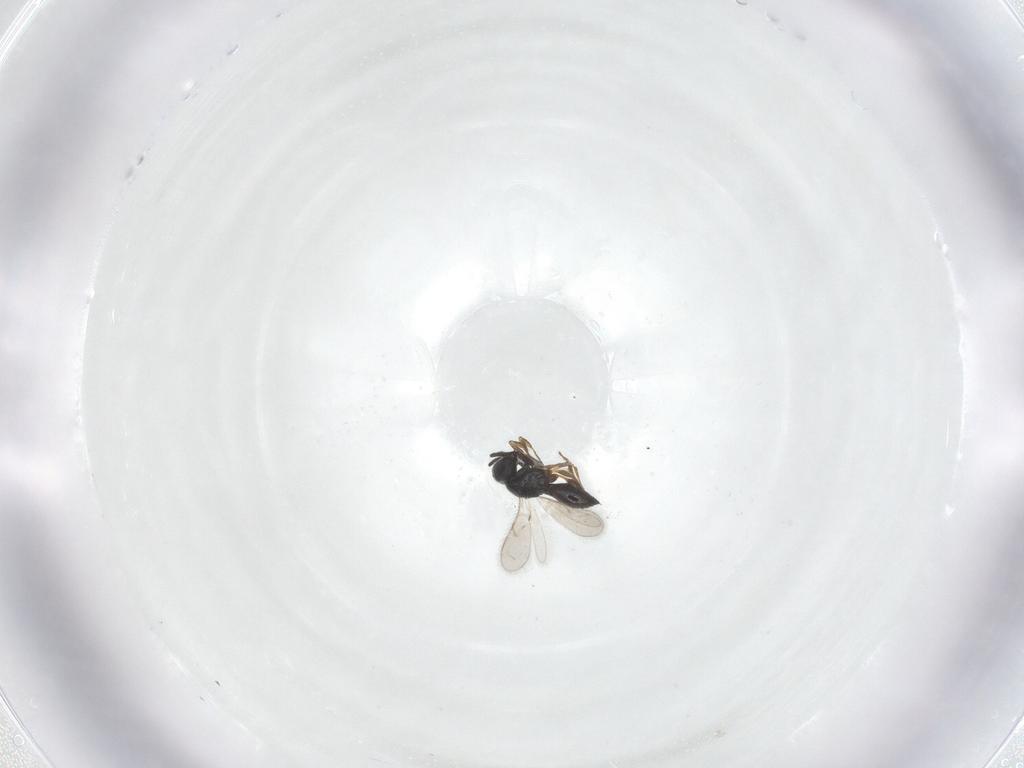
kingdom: Animalia
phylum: Arthropoda
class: Insecta
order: Hymenoptera
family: Scelionidae
